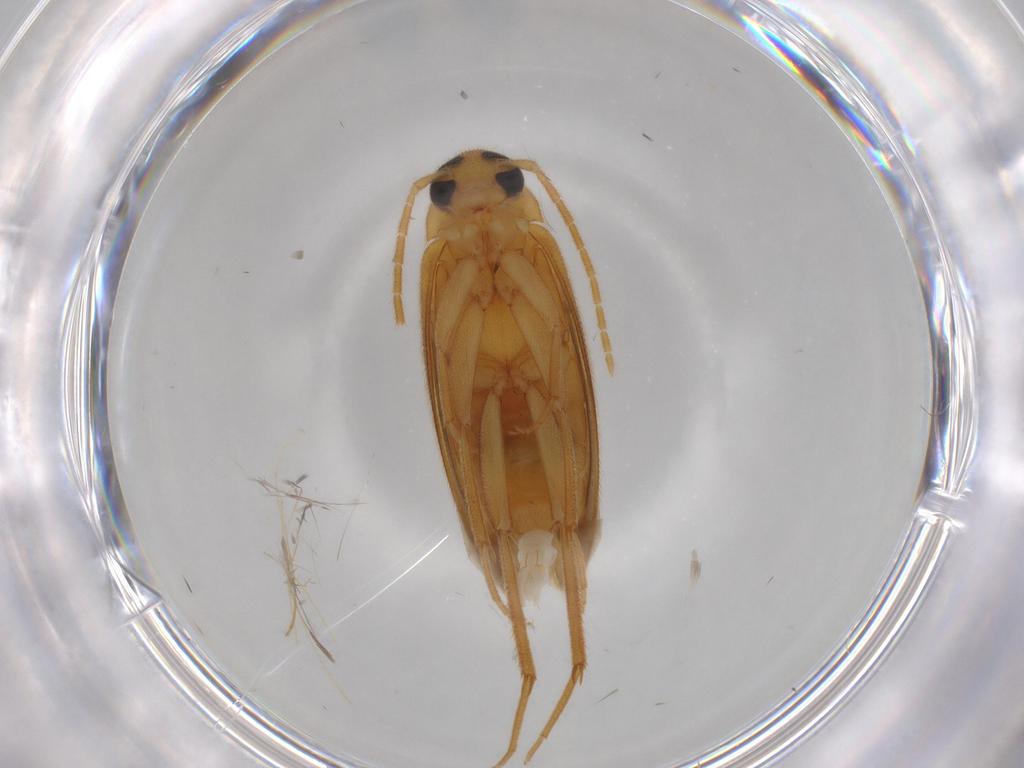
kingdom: Animalia
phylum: Arthropoda
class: Insecta
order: Coleoptera
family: Scraptiidae
